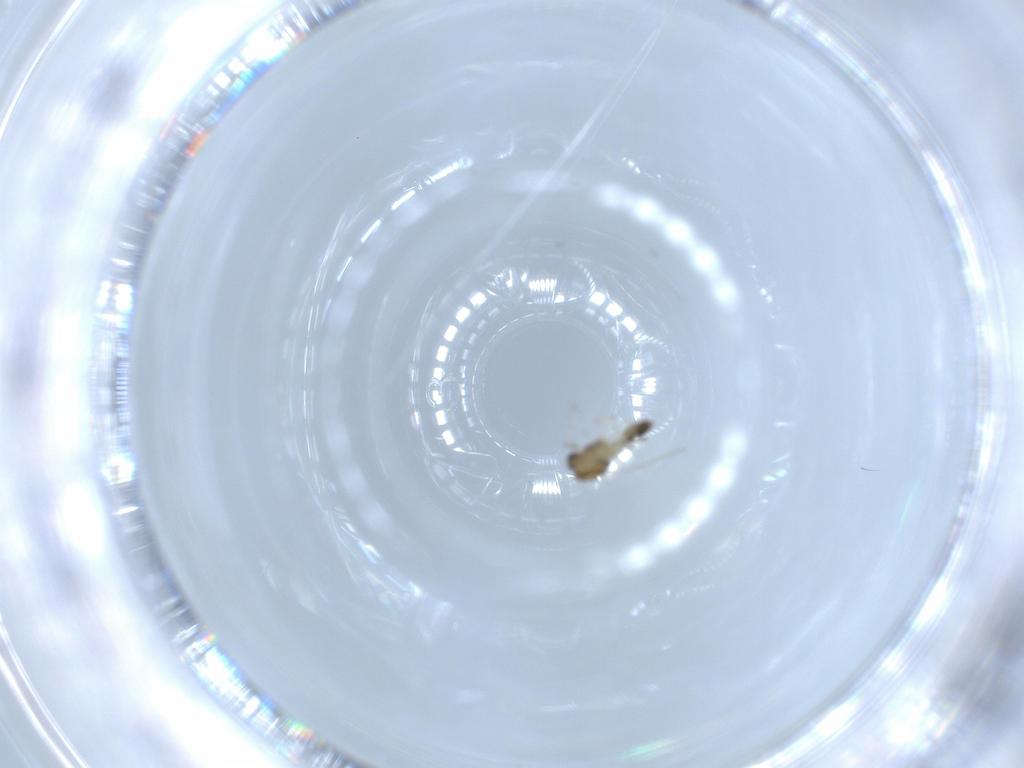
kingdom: Animalia
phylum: Arthropoda
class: Insecta
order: Diptera
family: Chironomidae
